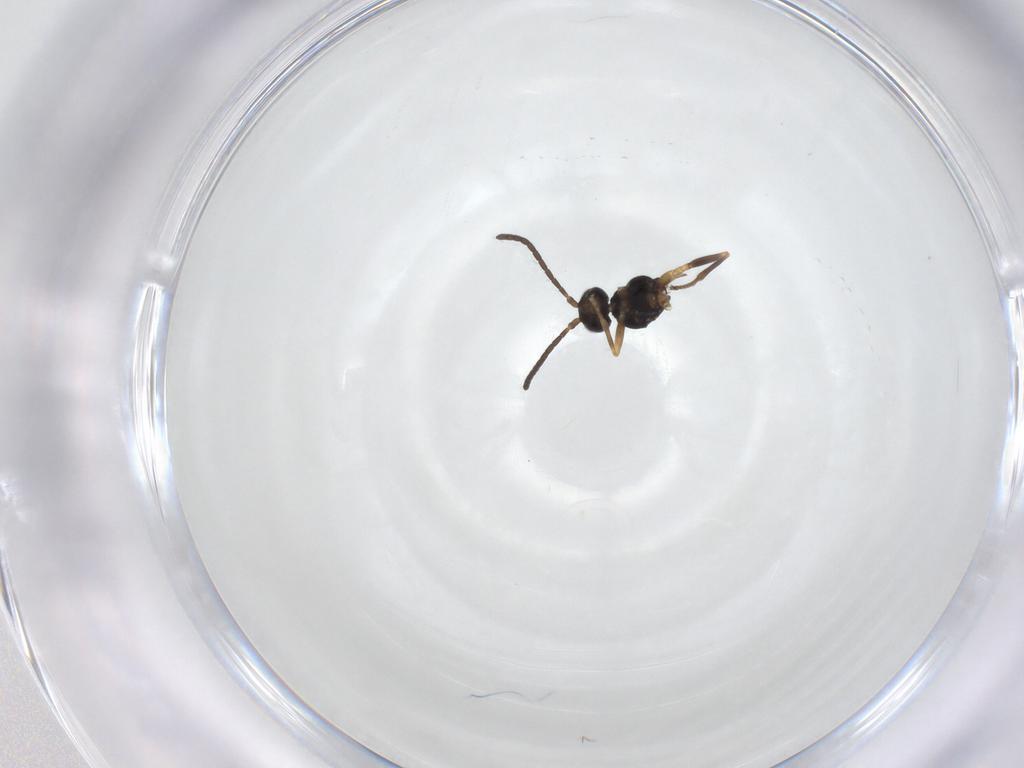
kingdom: Animalia
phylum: Arthropoda
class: Insecta
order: Hymenoptera
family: Braconidae
